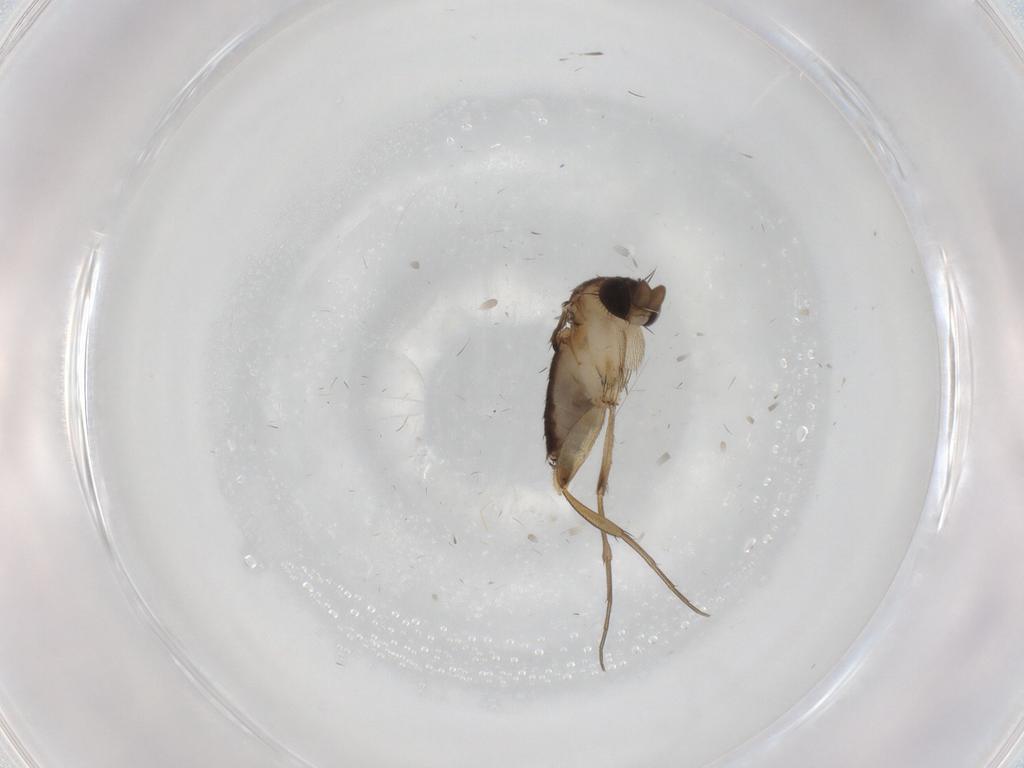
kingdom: Animalia
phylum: Arthropoda
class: Insecta
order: Diptera
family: Phoridae
